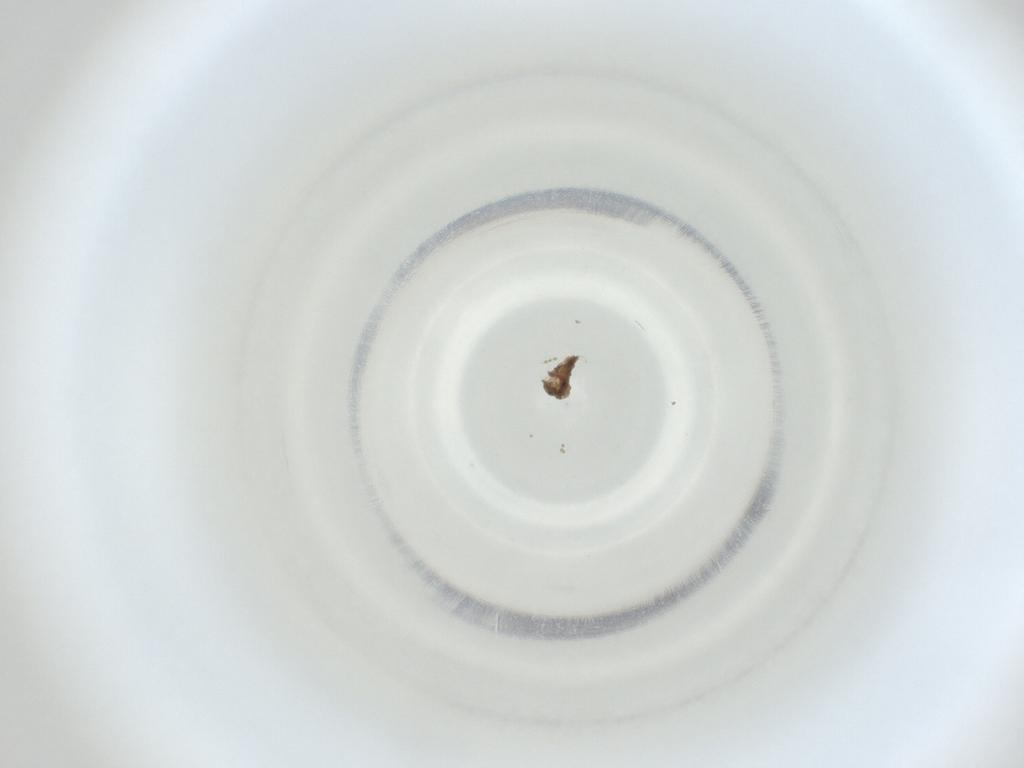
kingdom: Animalia
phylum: Arthropoda
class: Insecta
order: Diptera
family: Cecidomyiidae
